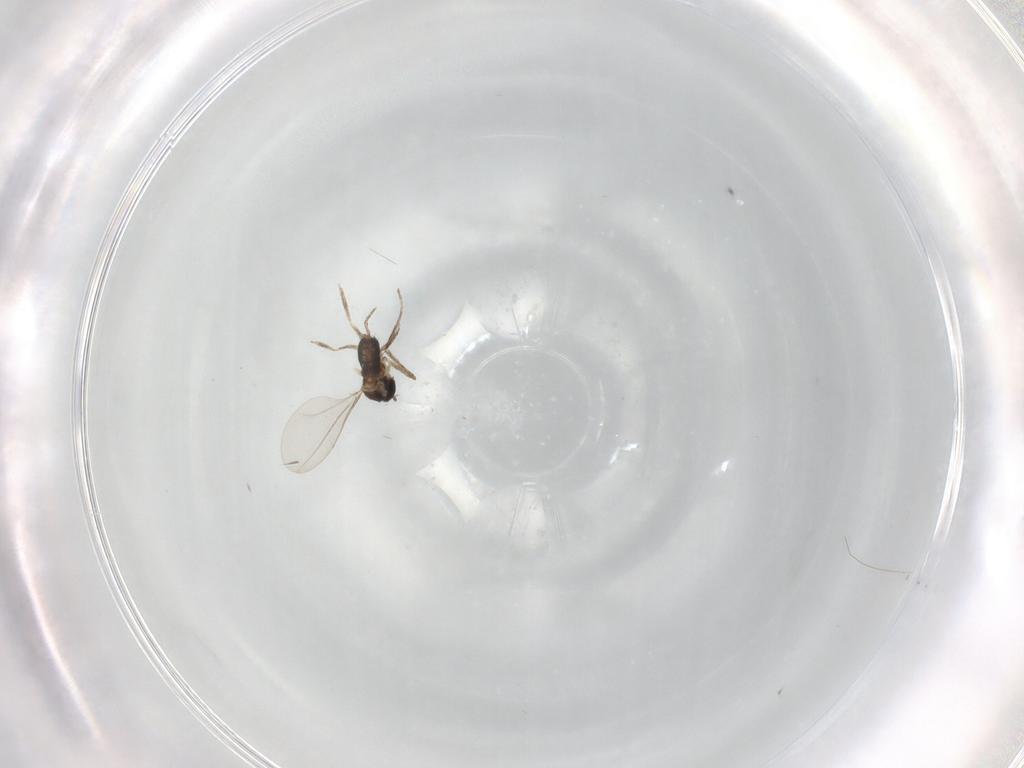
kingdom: Animalia
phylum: Arthropoda
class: Insecta
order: Diptera
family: Cecidomyiidae
